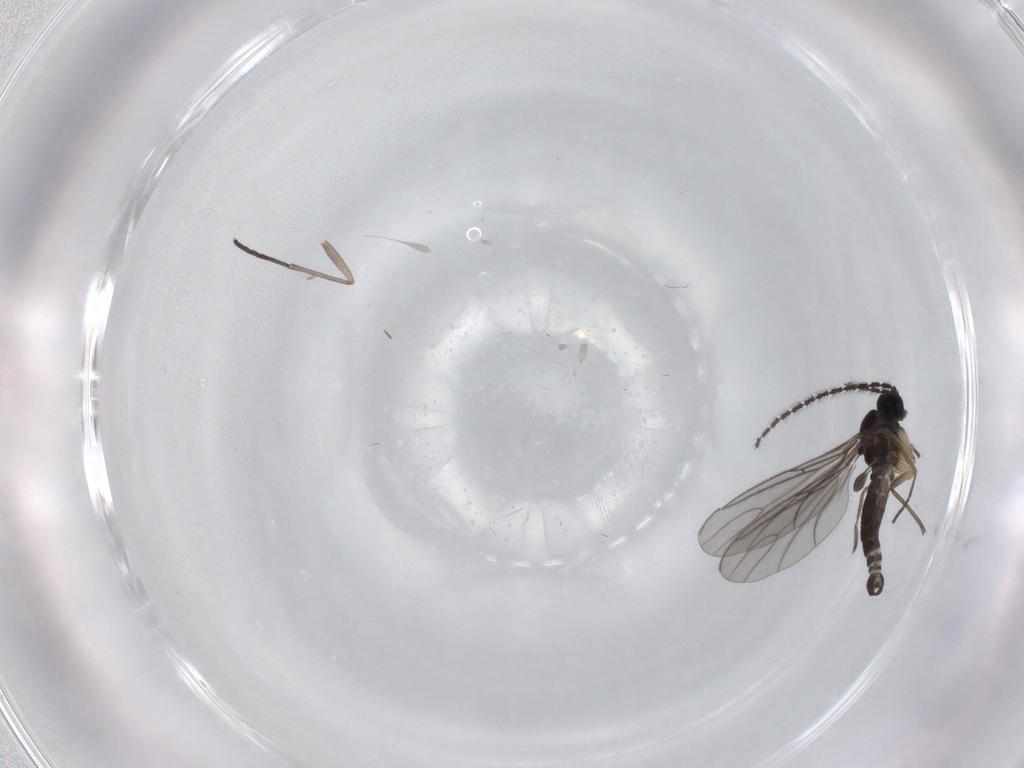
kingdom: Animalia
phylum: Arthropoda
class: Insecta
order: Diptera
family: Sciaridae
